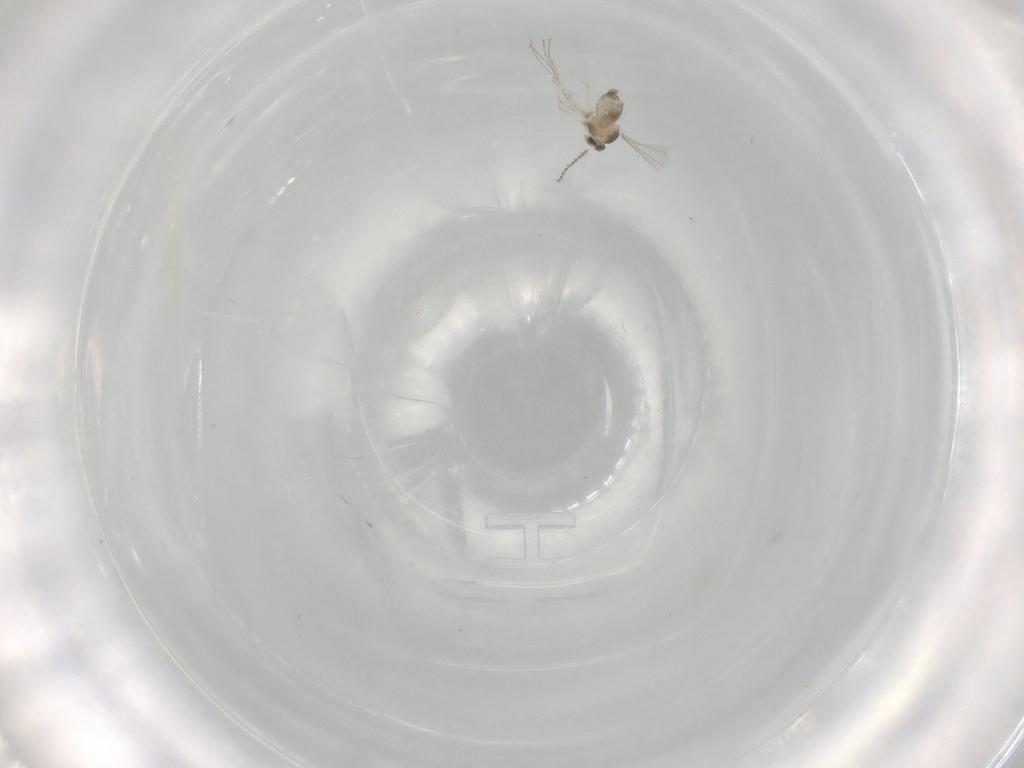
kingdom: Animalia
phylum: Arthropoda
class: Insecta
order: Diptera
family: Cecidomyiidae
